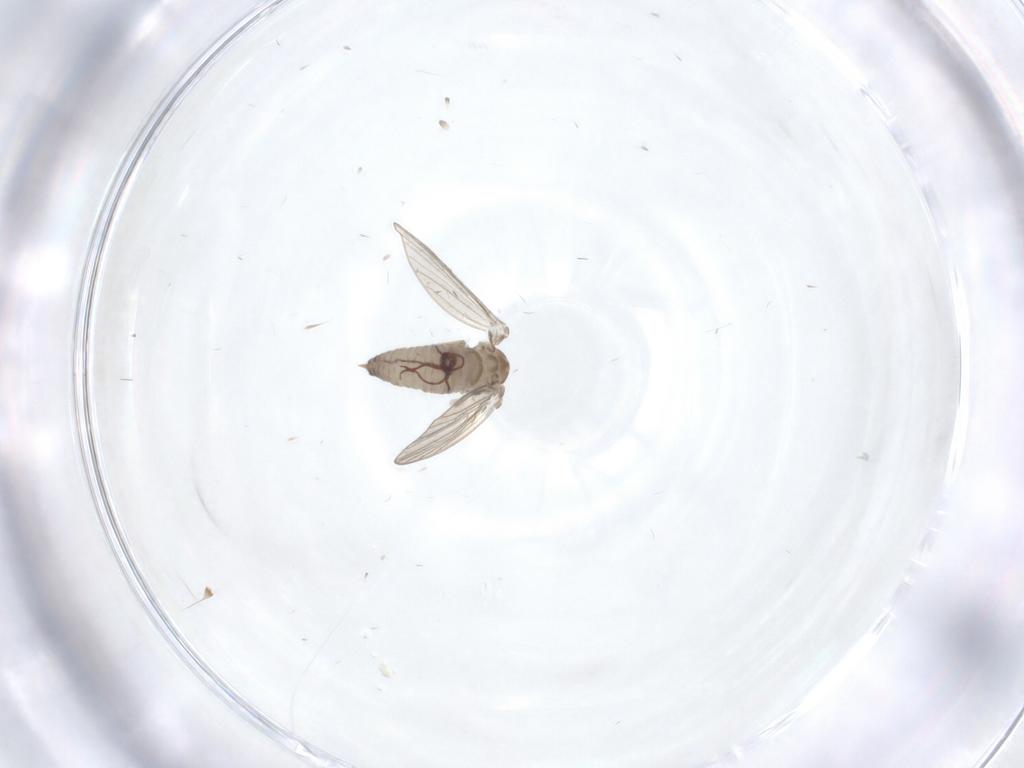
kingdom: Animalia
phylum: Arthropoda
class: Insecta
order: Diptera
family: Psychodidae
